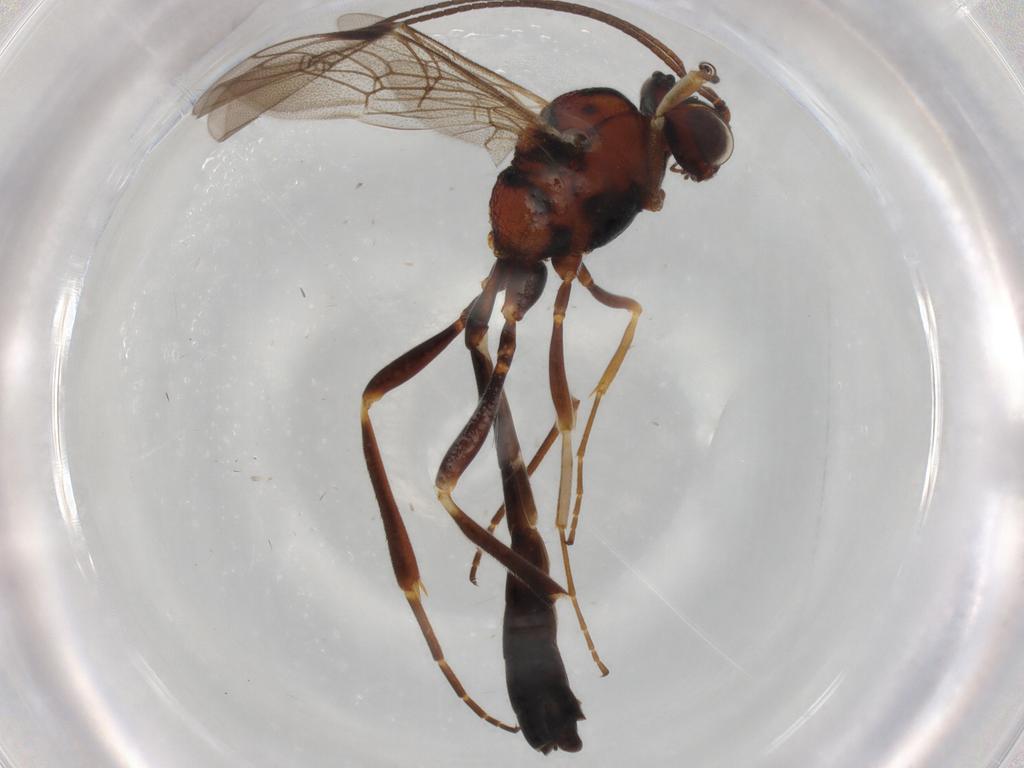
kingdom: Animalia
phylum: Arthropoda
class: Insecta
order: Hymenoptera
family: Ichneumonidae
